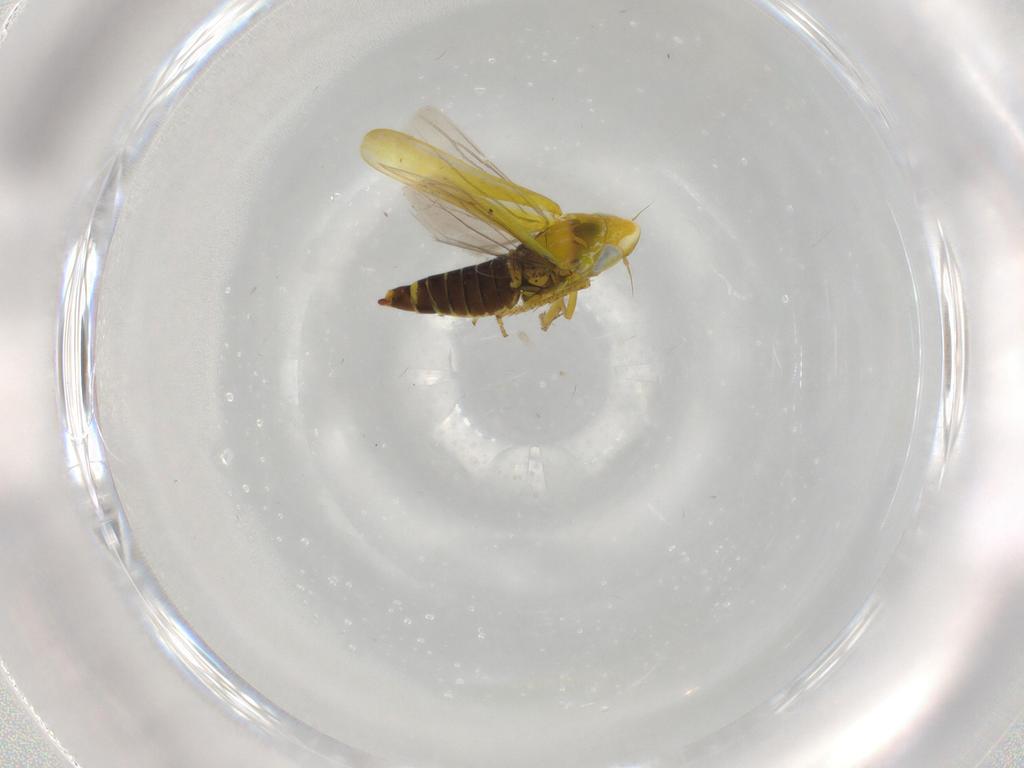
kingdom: Animalia
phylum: Arthropoda
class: Insecta
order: Hemiptera
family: Cicadellidae
